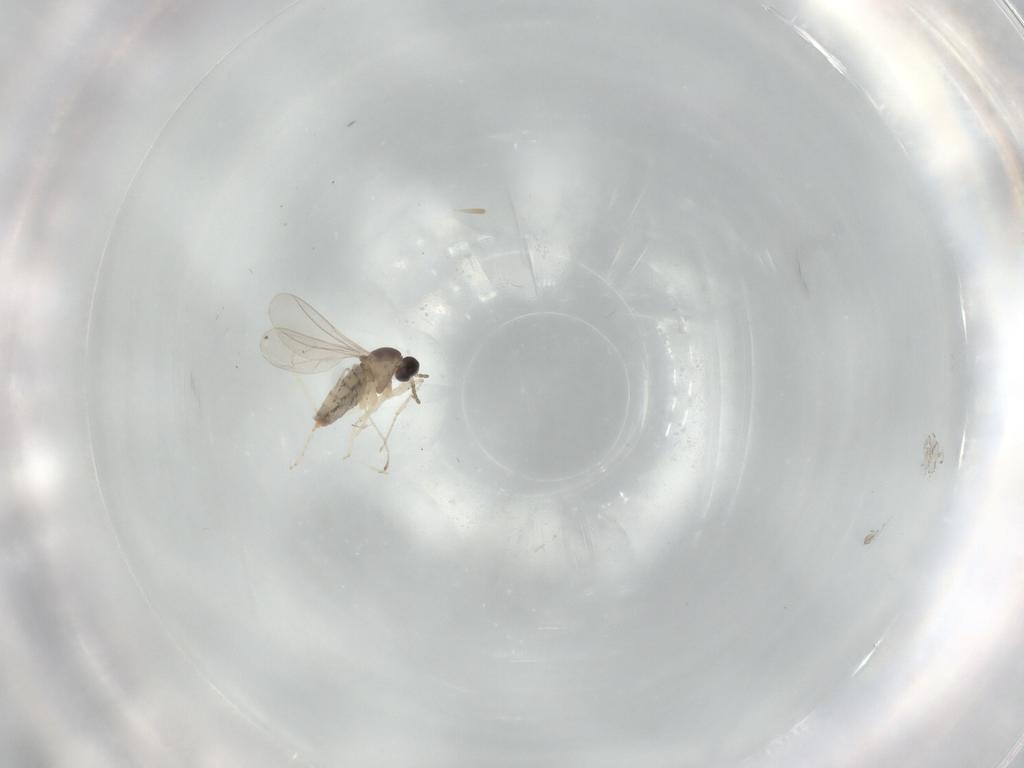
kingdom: Animalia
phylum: Arthropoda
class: Insecta
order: Diptera
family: Cecidomyiidae
